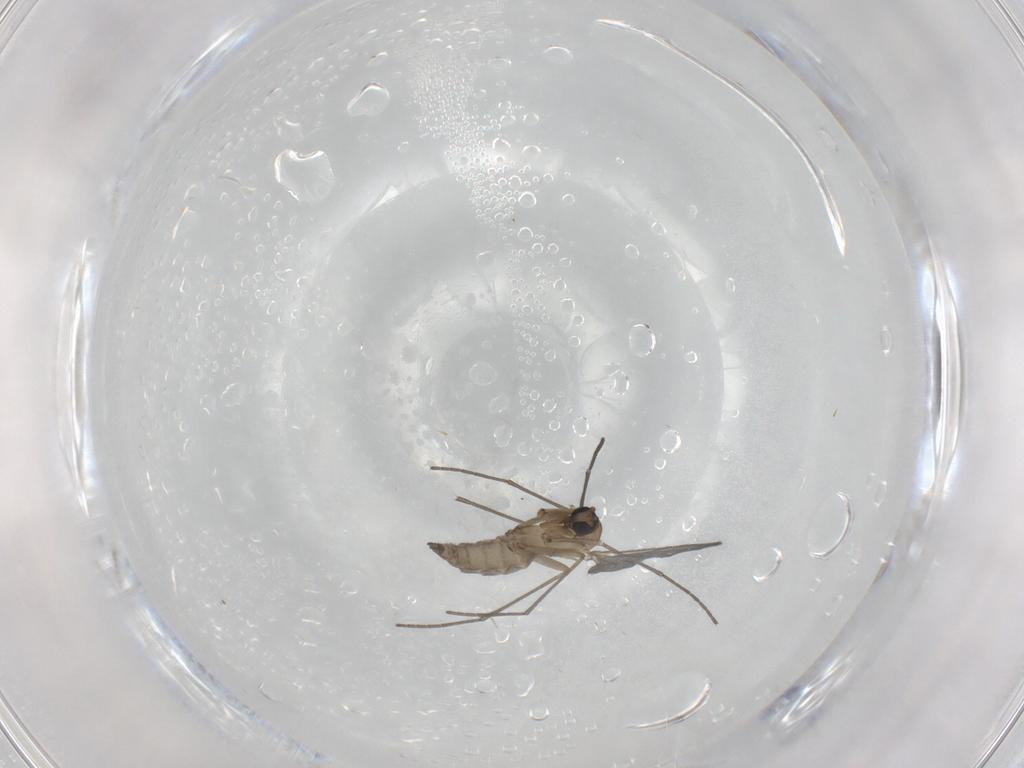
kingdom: Animalia
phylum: Arthropoda
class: Insecta
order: Diptera
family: Sciaridae
